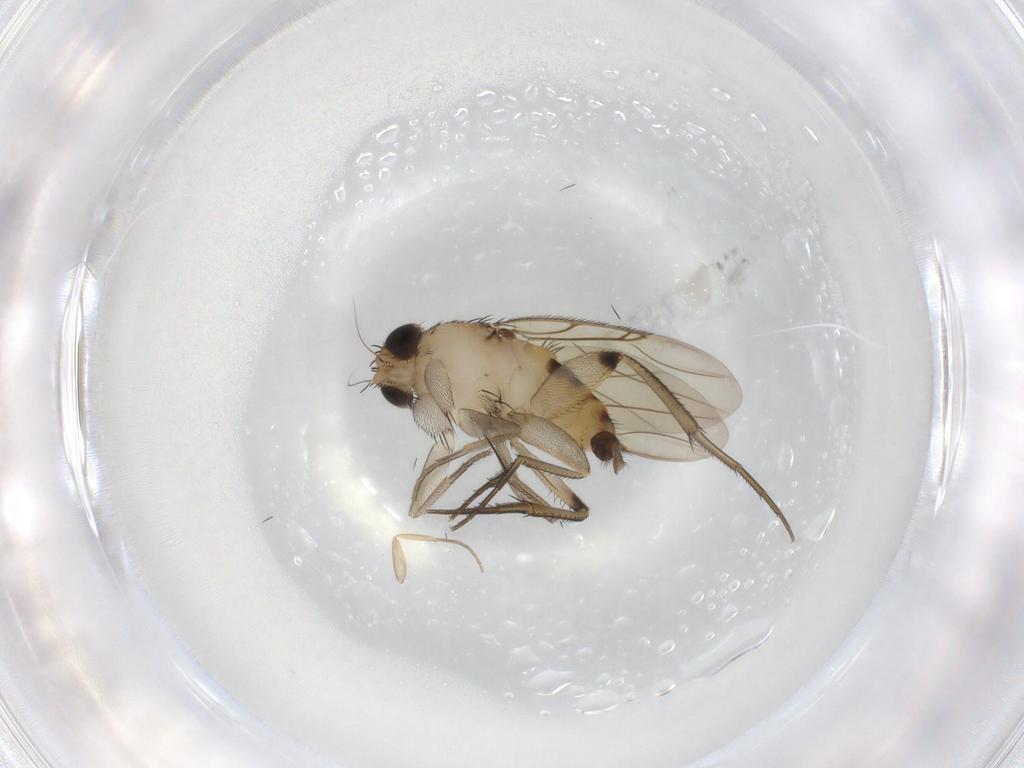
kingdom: Animalia
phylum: Arthropoda
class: Insecta
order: Diptera
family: Phoridae
